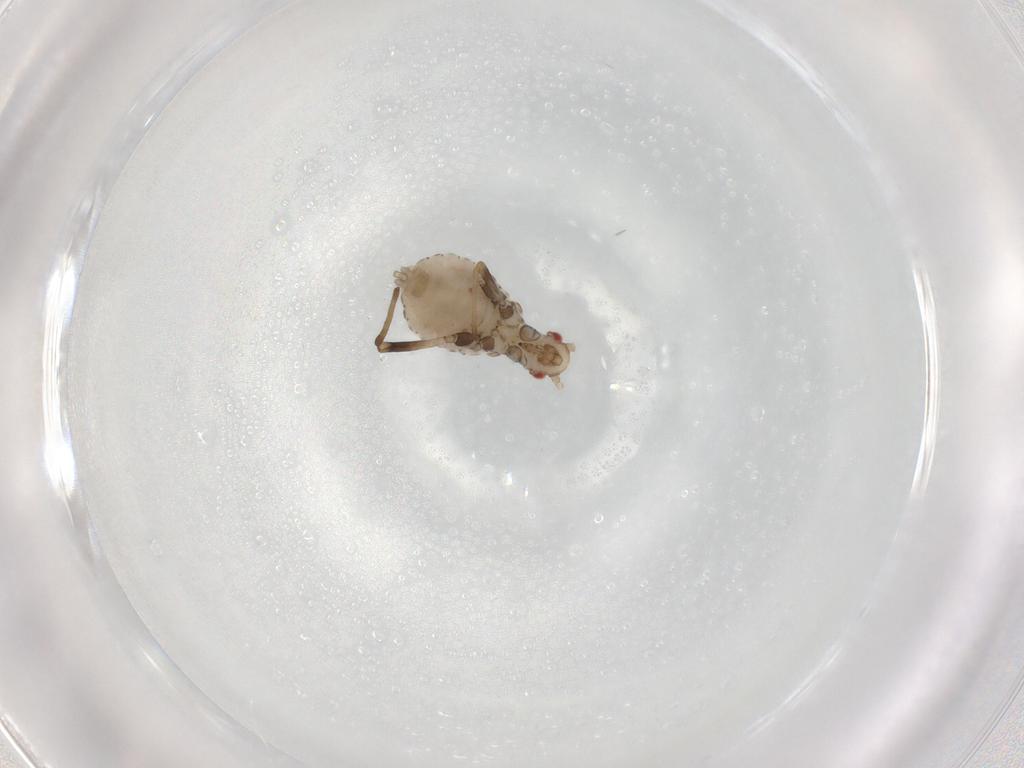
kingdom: Animalia
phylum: Arthropoda
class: Insecta
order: Hemiptera
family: Aphididae
